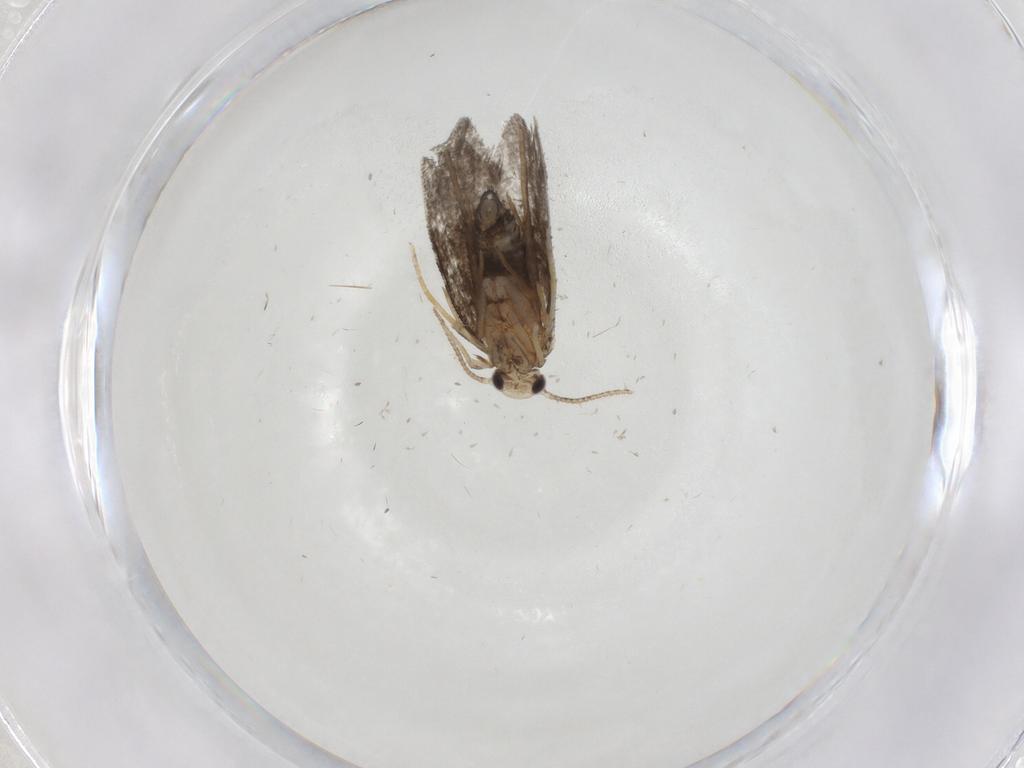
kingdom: Animalia
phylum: Arthropoda
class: Insecta
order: Lepidoptera
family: Psychidae
